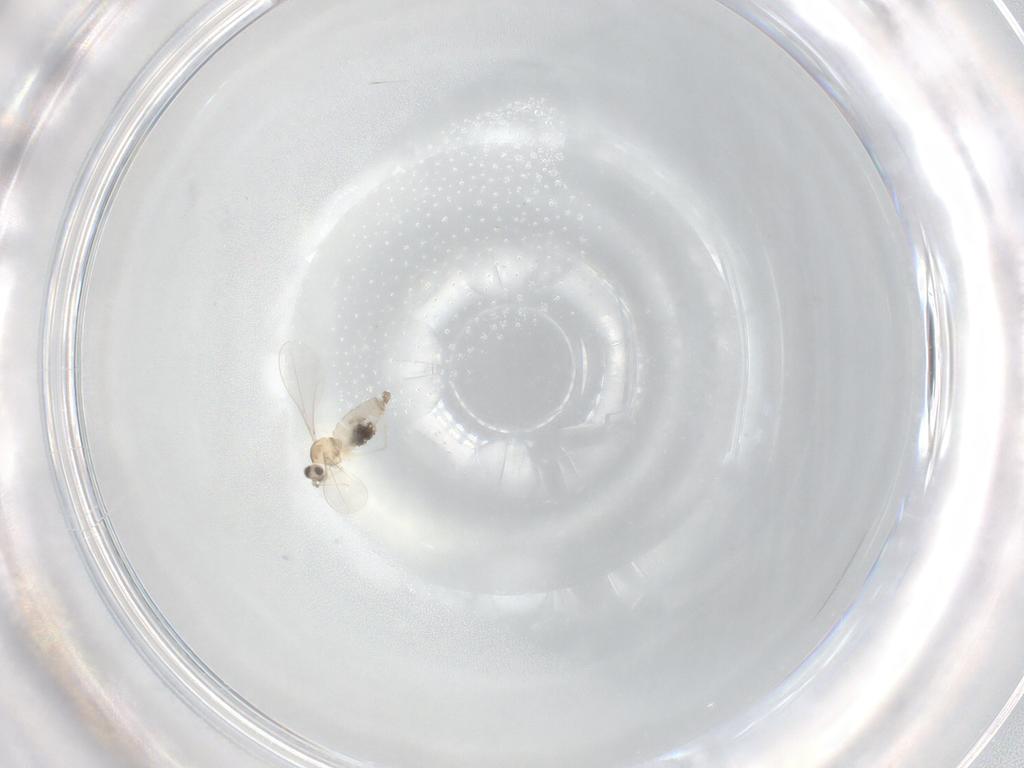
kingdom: Animalia
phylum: Arthropoda
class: Insecta
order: Diptera
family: Cecidomyiidae
